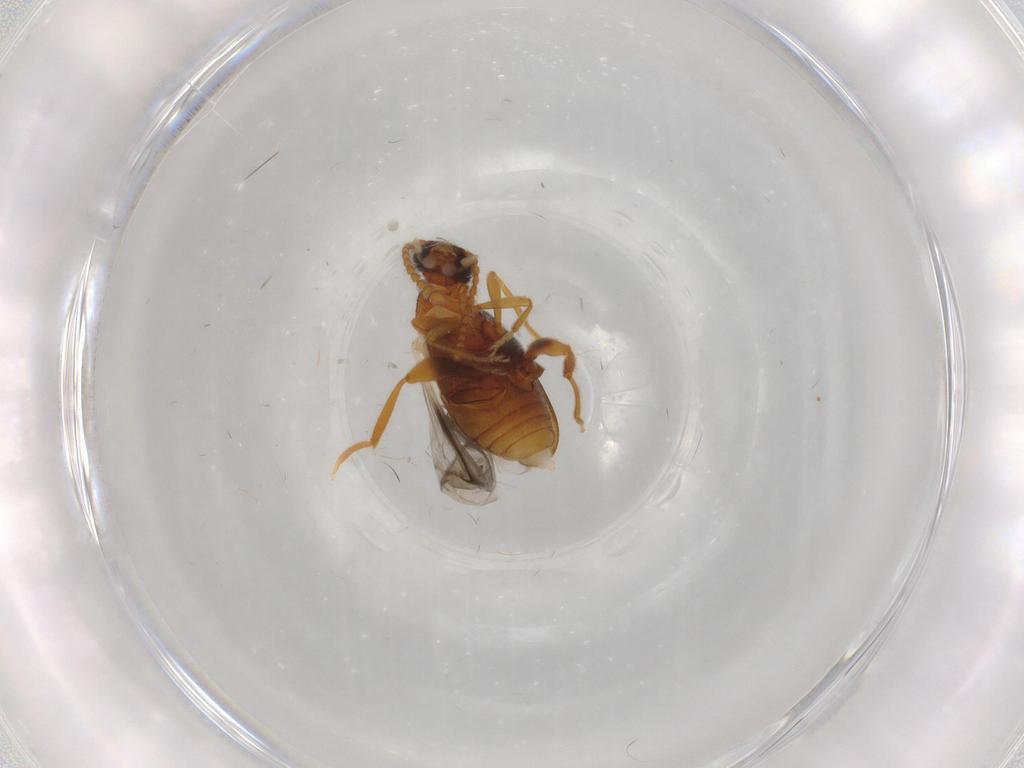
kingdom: Animalia
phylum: Arthropoda
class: Insecta
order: Coleoptera
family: Aderidae
